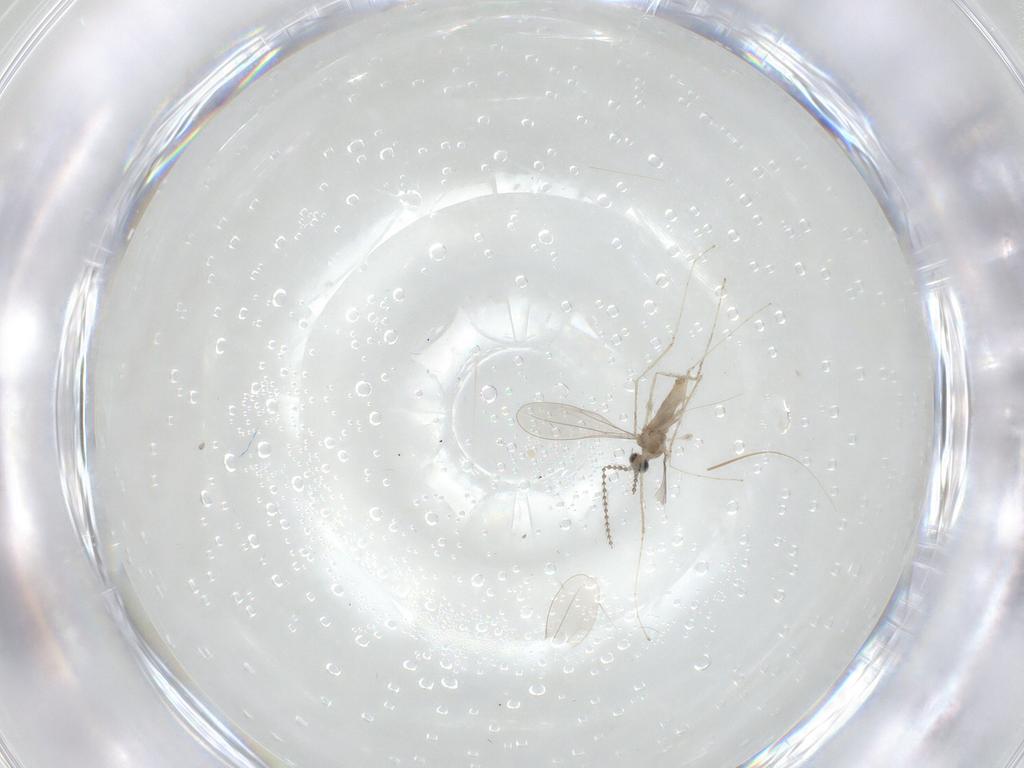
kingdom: Animalia
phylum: Arthropoda
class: Insecta
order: Diptera
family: Cecidomyiidae
